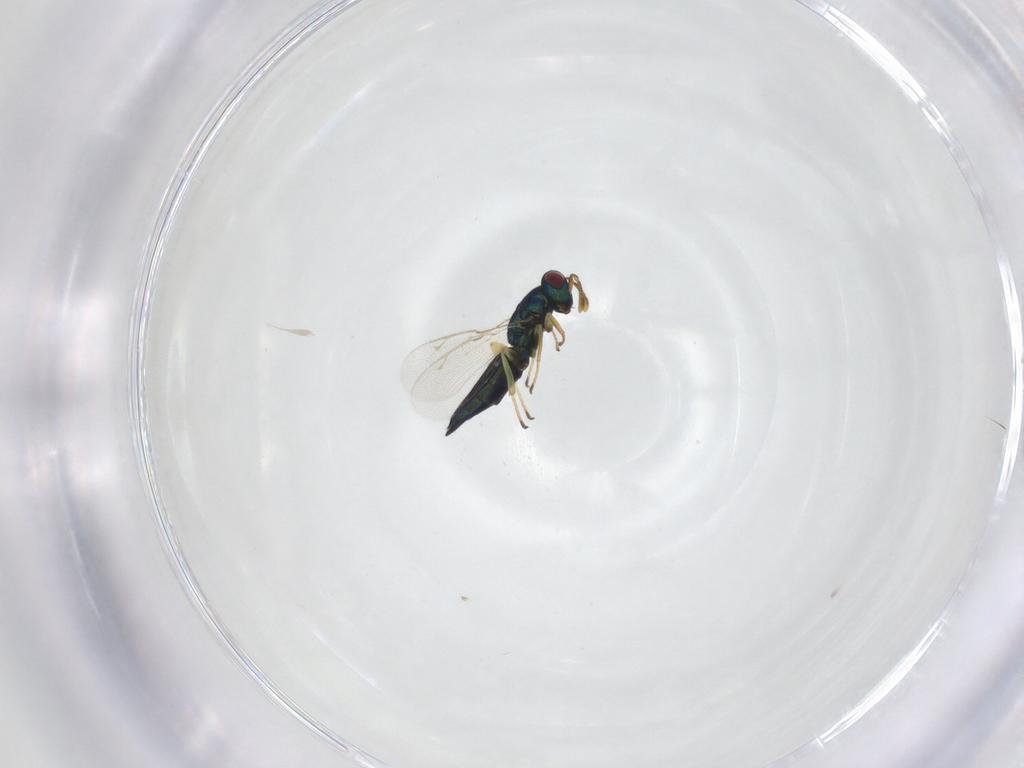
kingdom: Animalia
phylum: Arthropoda
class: Insecta
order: Hymenoptera
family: Pteromalidae
